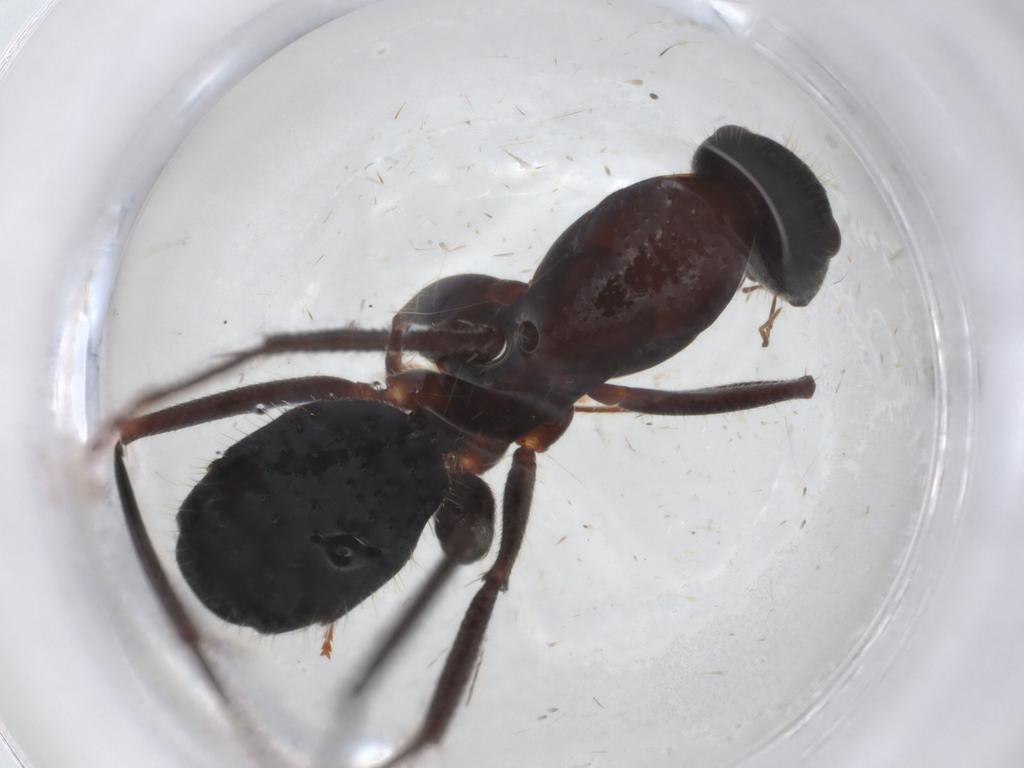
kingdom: Animalia
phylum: Arthropoda
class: Insecta
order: Hymenoptera
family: Formicidae
